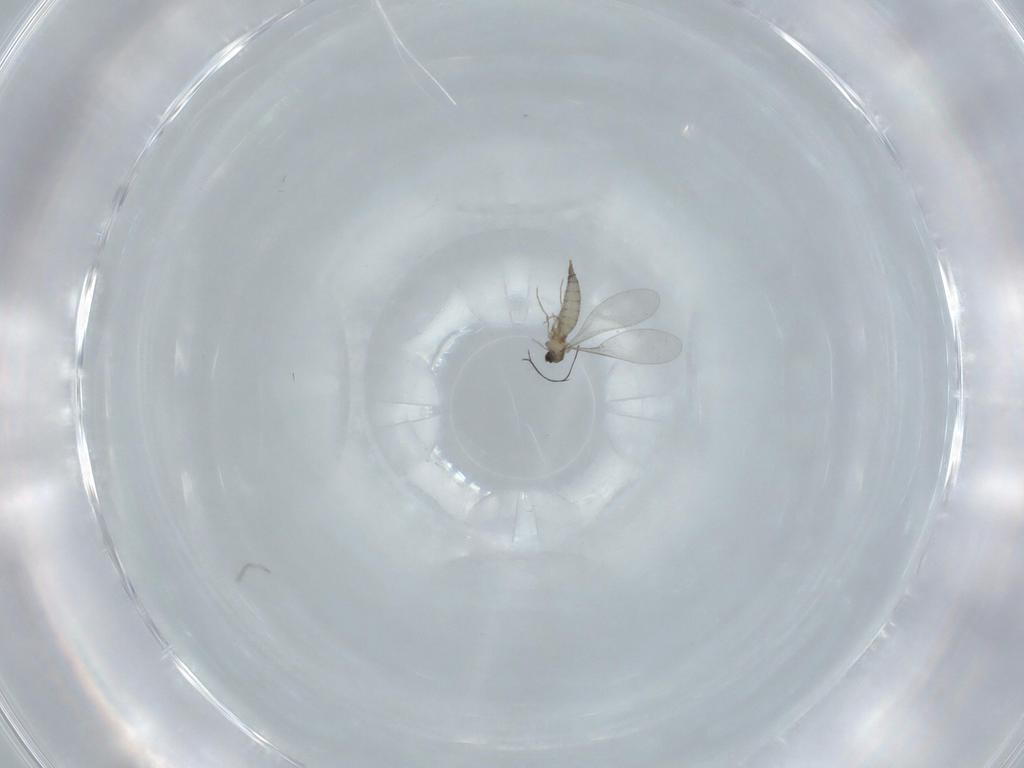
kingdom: Animalia
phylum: Arthropoda
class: Insecta
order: Diptera
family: Cecidomyiidae
